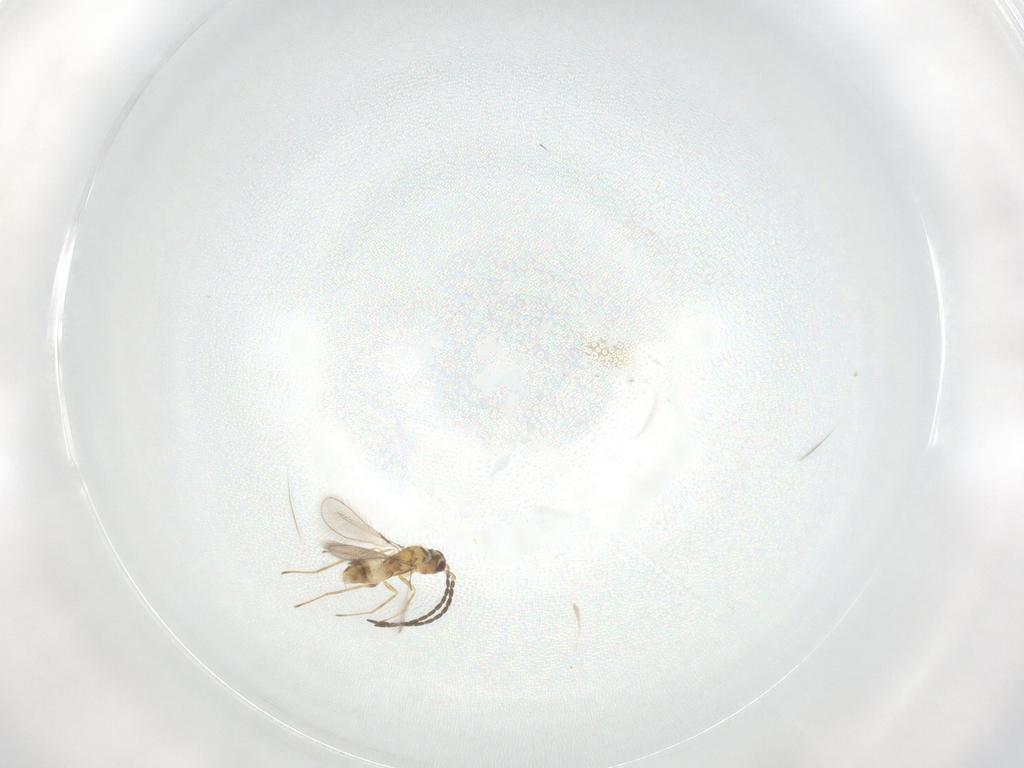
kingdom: Animalia
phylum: Arthropoda
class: Insecta
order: Hymenoptera
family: Mymaridae
